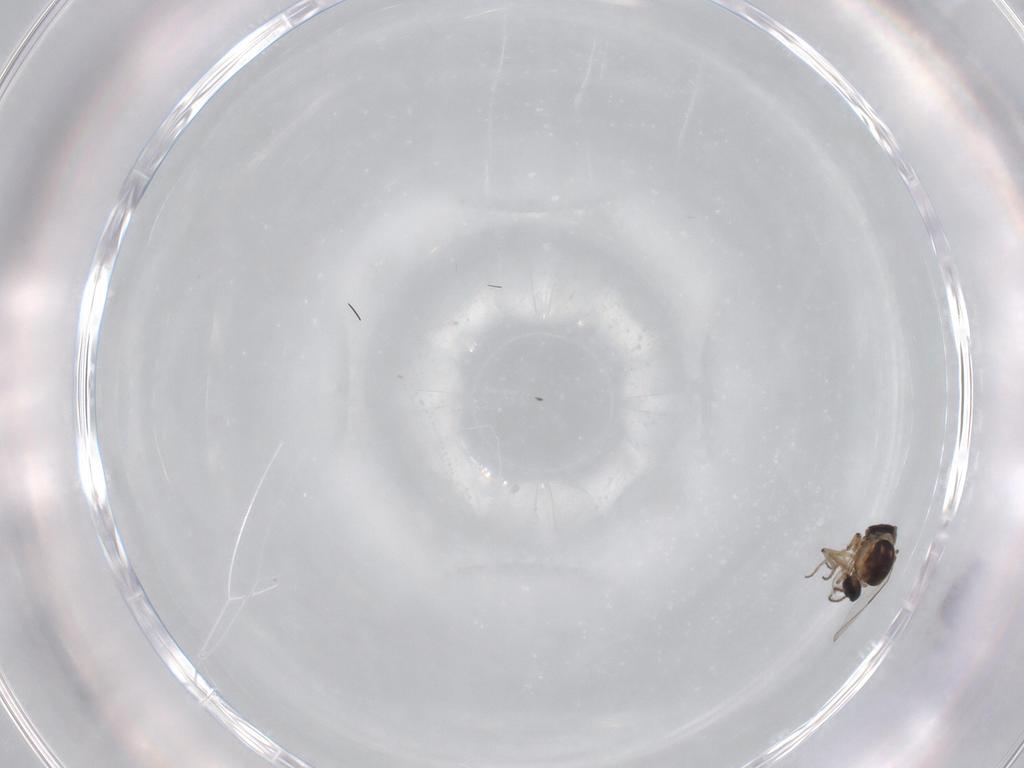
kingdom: Animalia
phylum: Arthropoda
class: Insecta
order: Diptera
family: Ceratopogonidae
